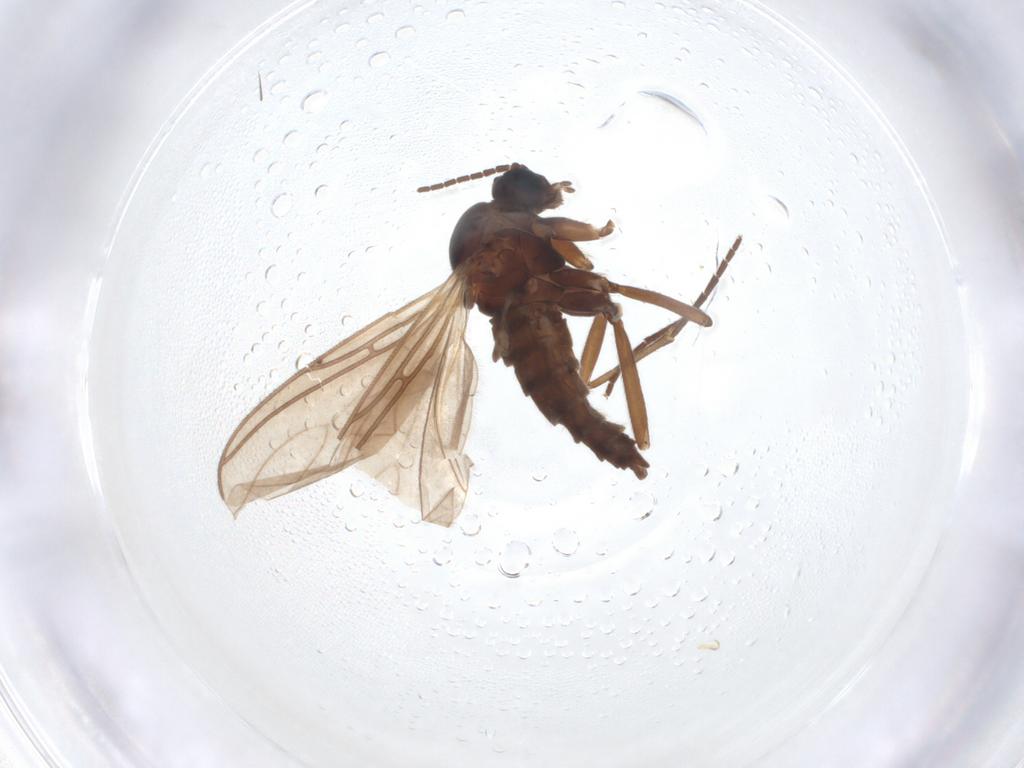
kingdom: Animalia
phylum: Arthropoda
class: Insecta
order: Diptera
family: Sciaridae
